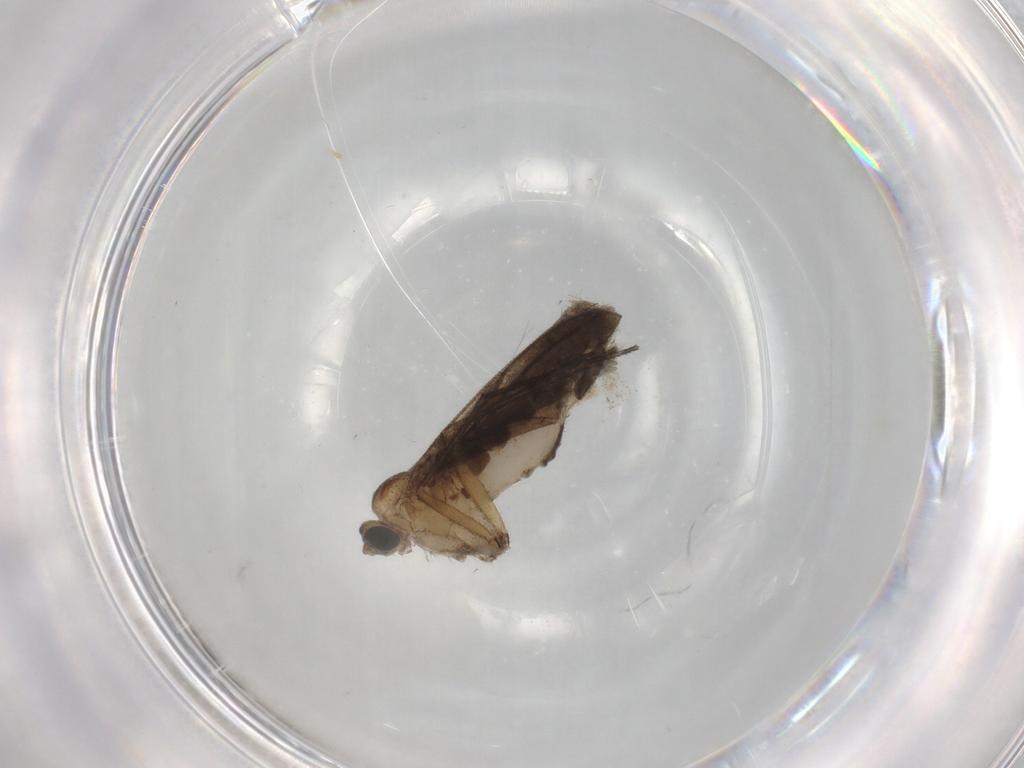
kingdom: Animalia
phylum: Arthropoda
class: Insecta
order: Diptera
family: Sciaridae
